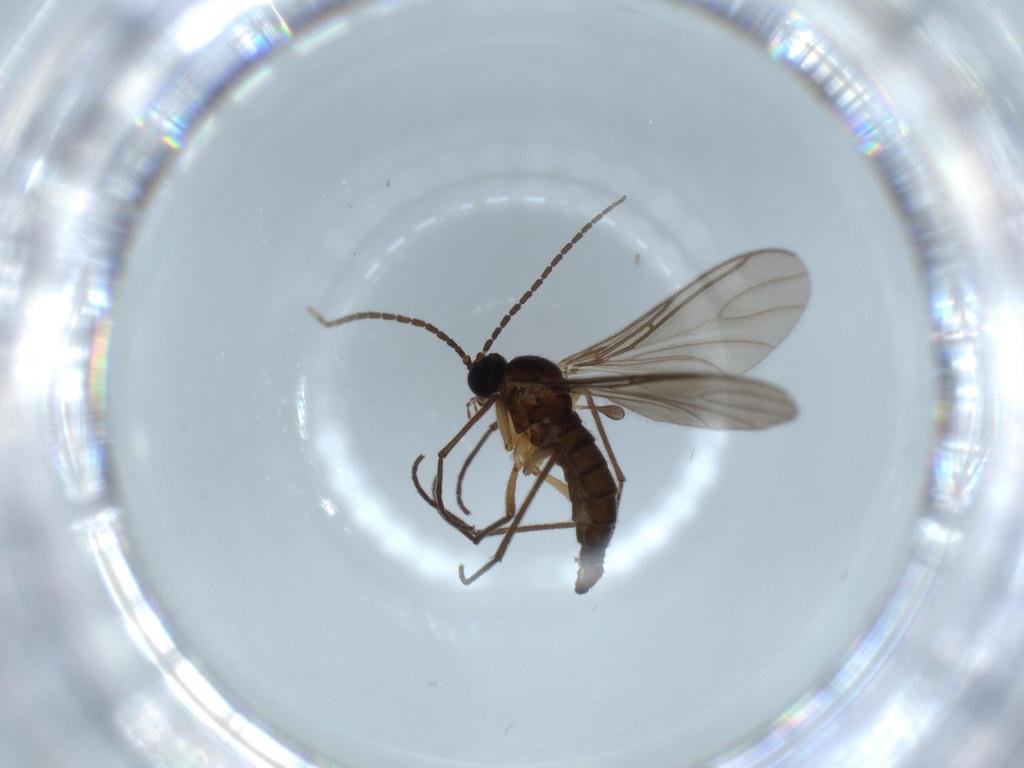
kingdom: Animalia
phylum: Arthropoda
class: Insecta
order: Diptera
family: Sciaridae
